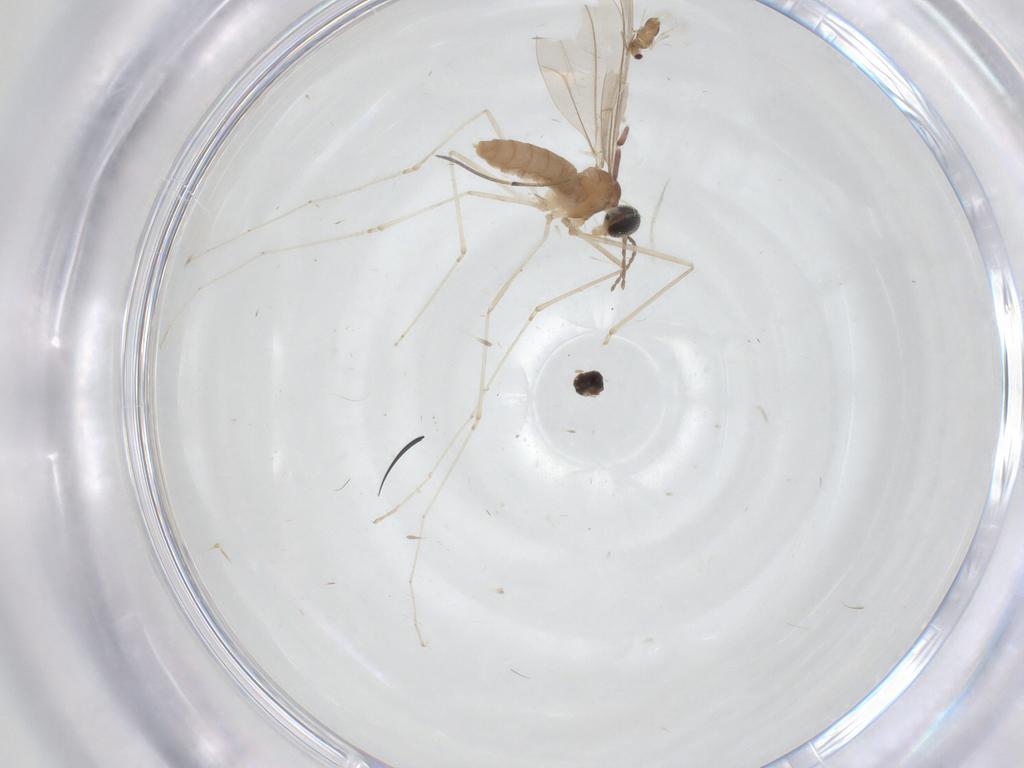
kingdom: Animalia
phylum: Arthropoda
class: Insecta
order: Diptera
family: Cecidomyiidae
